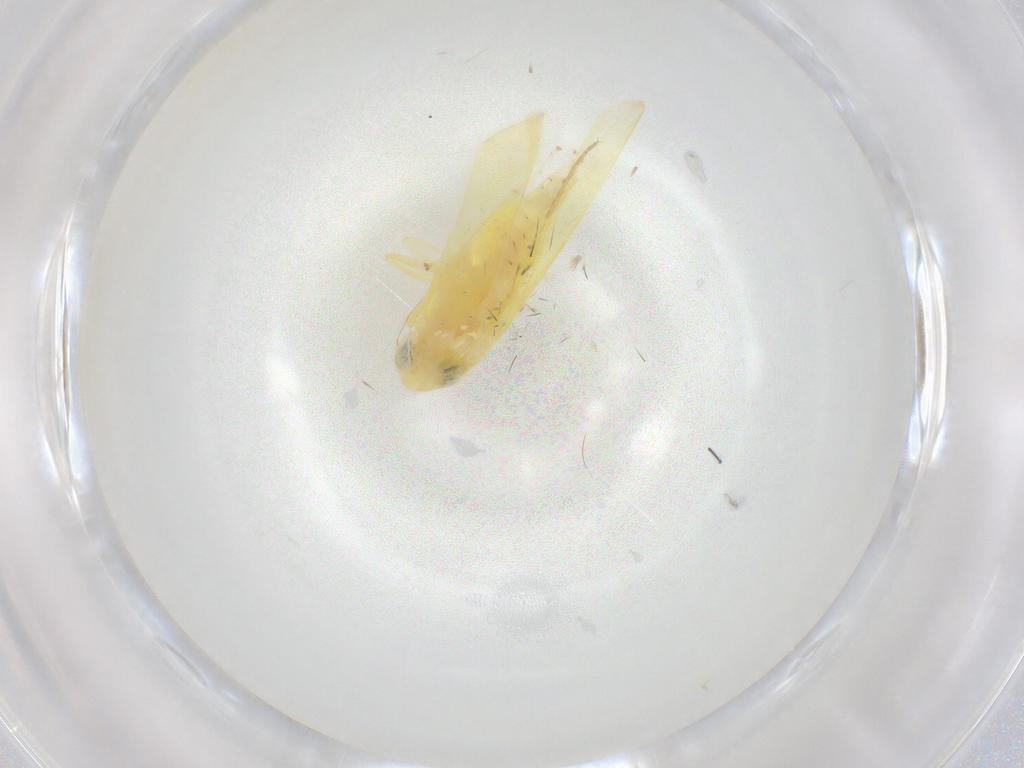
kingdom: Animalia
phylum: Arthropoda
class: Insecta
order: Hemiptera
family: Cicadellidae
